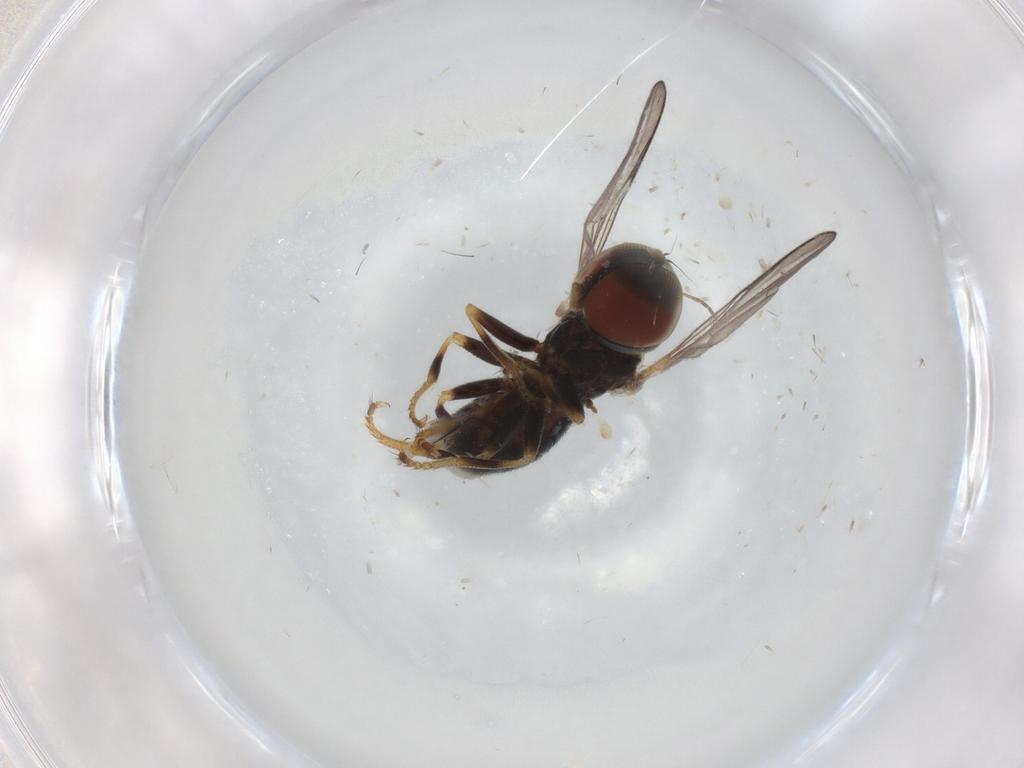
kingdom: Animalia
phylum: Arthropoda
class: Insecta
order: Diptera
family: Pipunculidae
